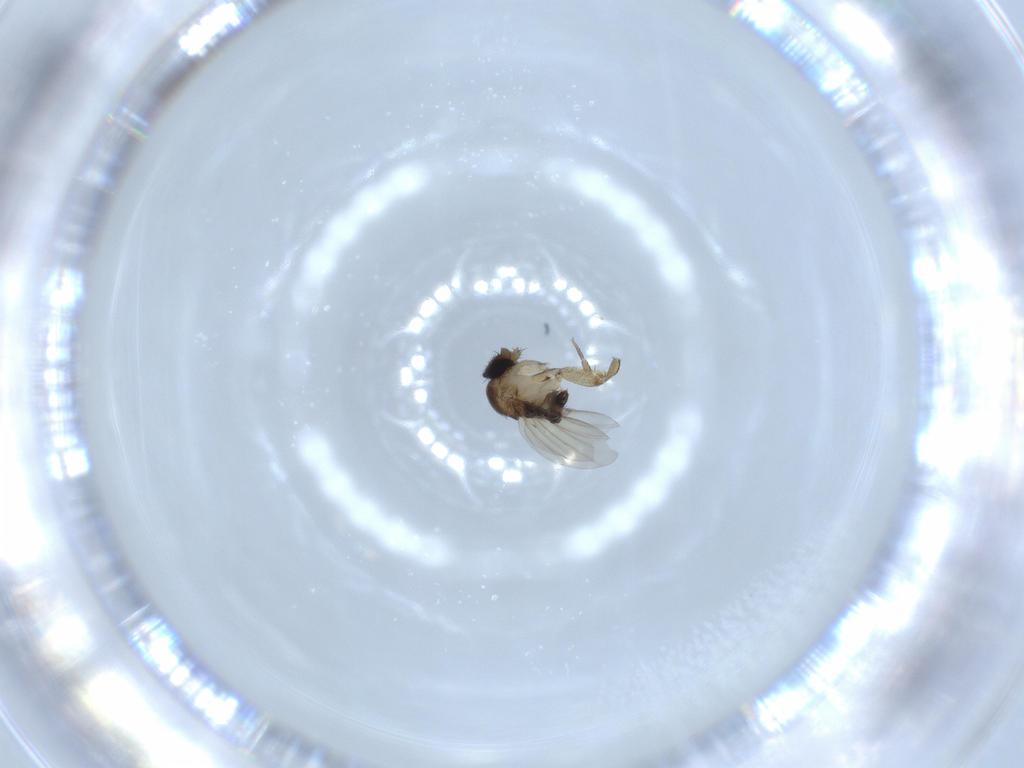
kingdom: Animalia
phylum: Arthropoda
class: Insecta
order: Diptera
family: Phoridae
